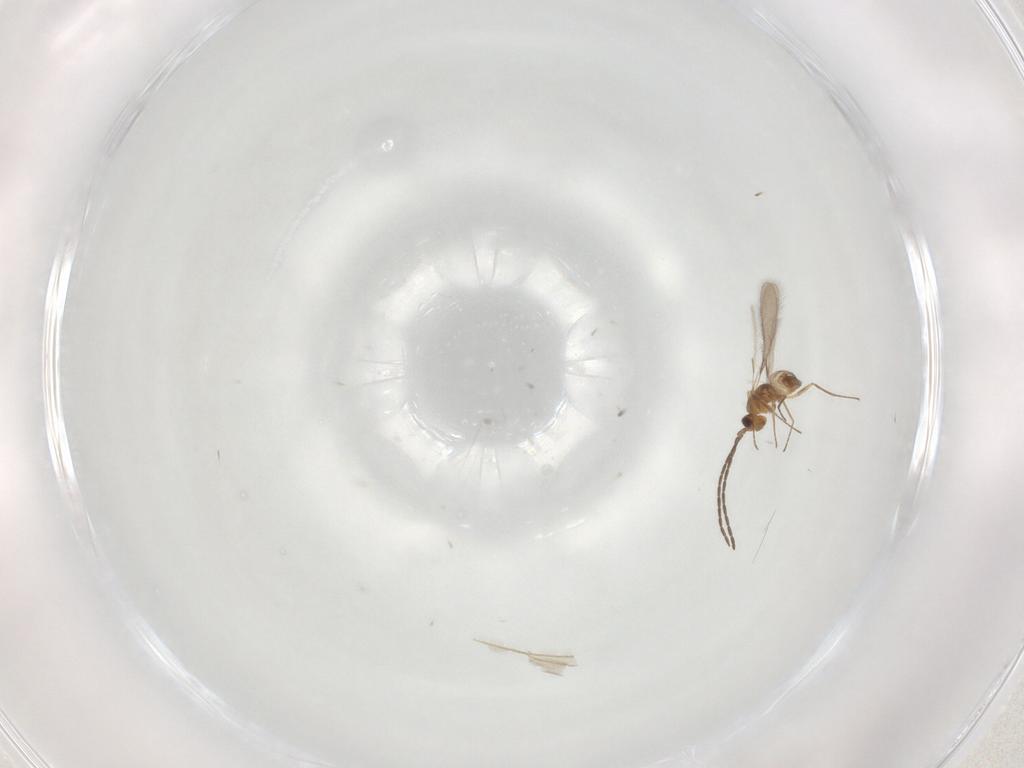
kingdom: Animalia
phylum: Arthropoda
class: Insecta
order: Hymenoptera
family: Mymaridae
